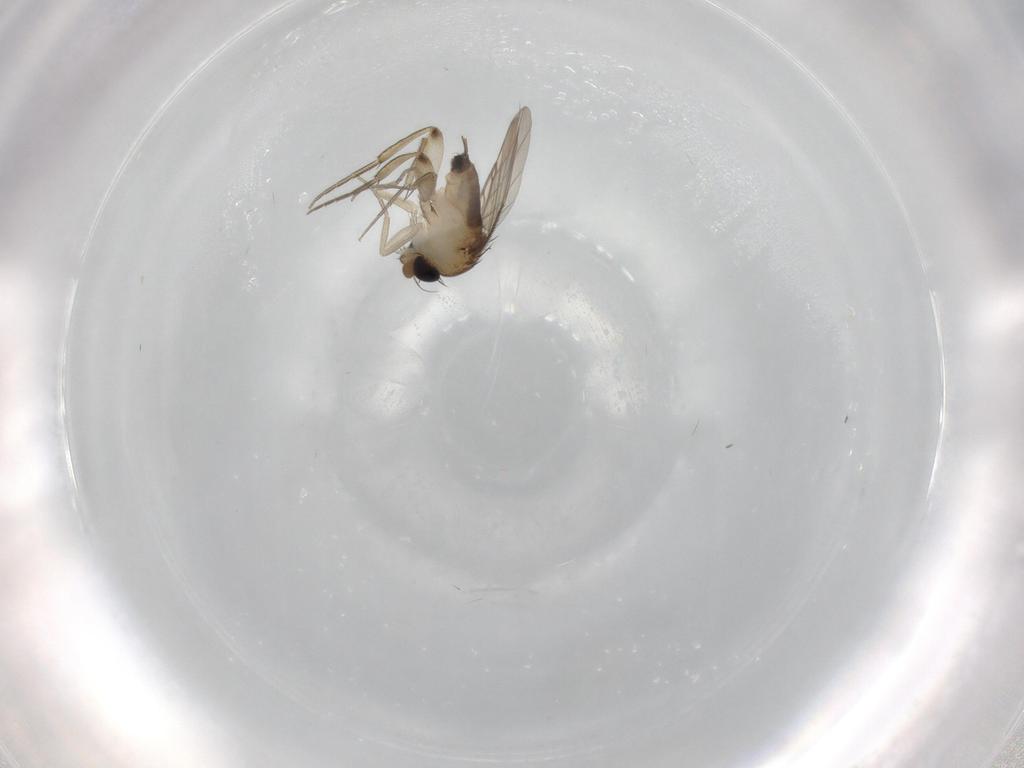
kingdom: Animalia
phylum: Arthropoda
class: Insecta
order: Diptera
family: Phoridae
